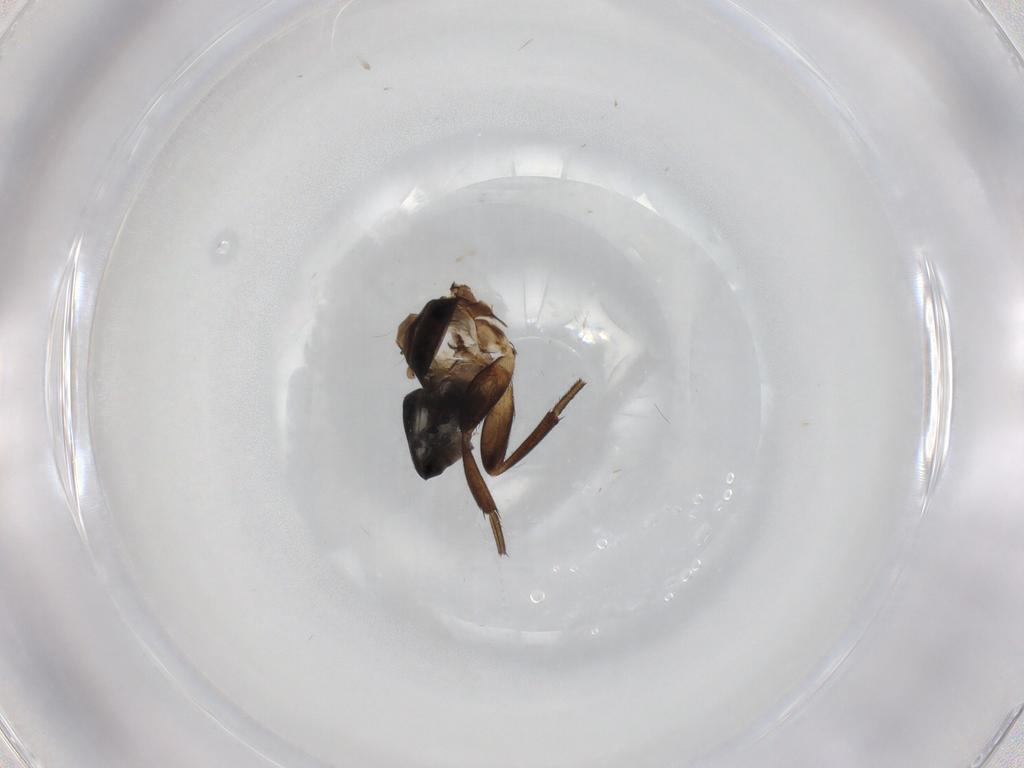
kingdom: Animalia
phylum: Arthropoda
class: Insecta
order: Diptera
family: Phoridae
